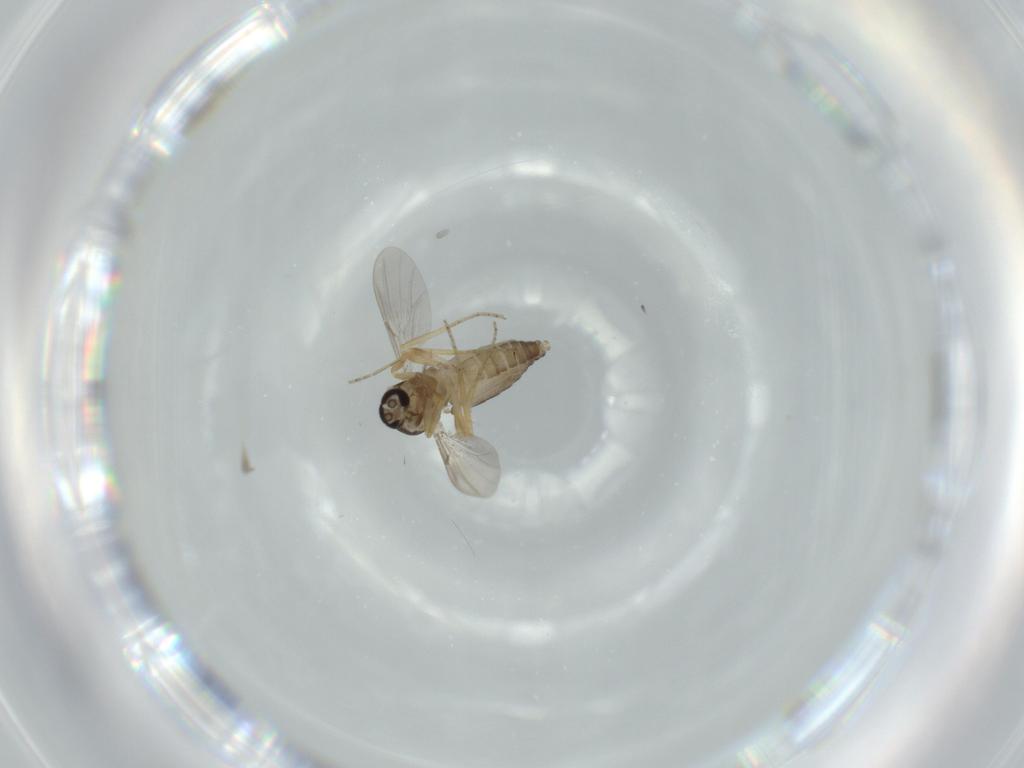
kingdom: Animalia
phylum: Arthropoda
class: Insecta
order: Diptera
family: Ceratopogonidae
